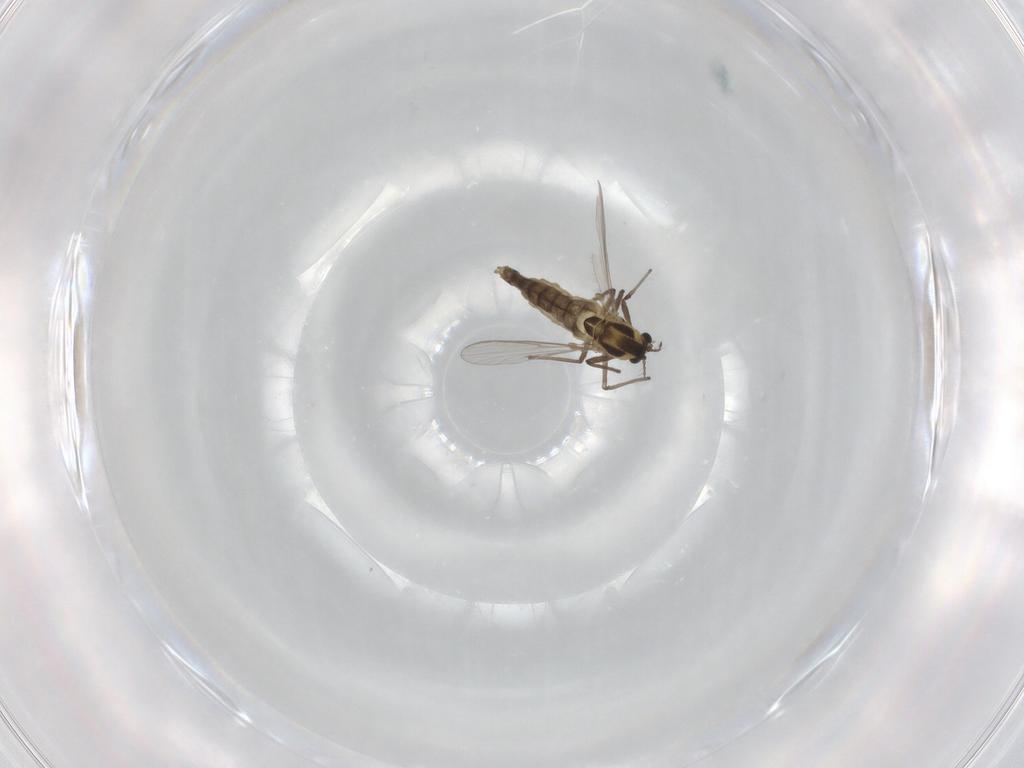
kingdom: Animalia
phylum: Arthropoda
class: Insecta
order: Diptera
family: Chironomidae
